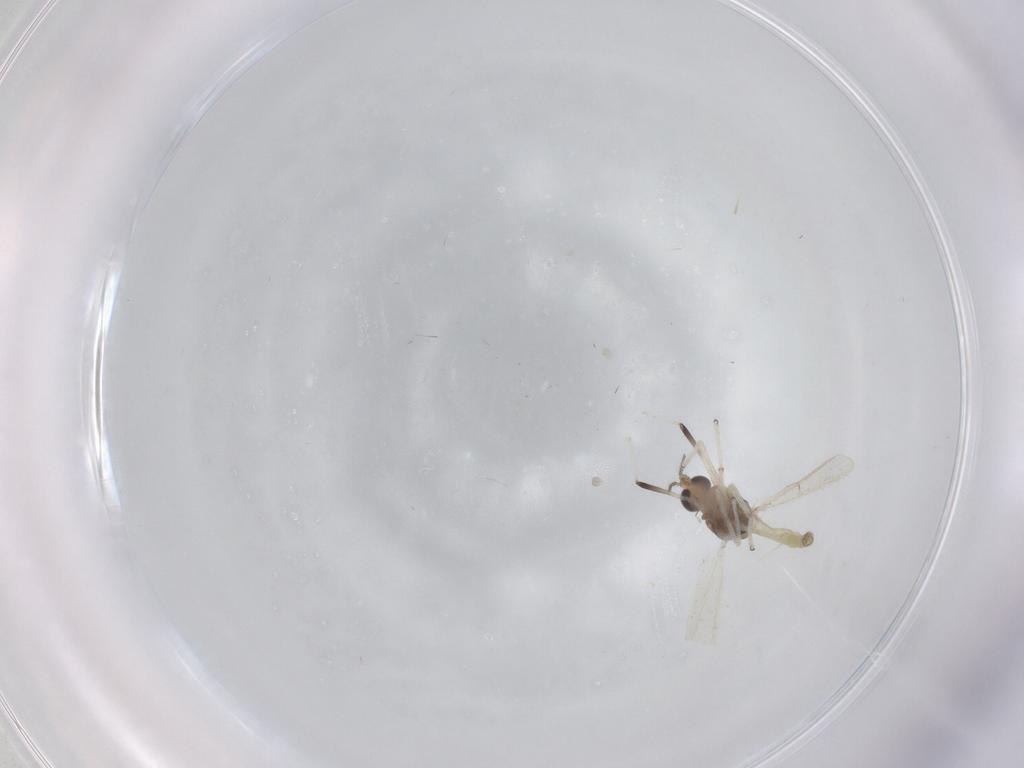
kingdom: Animalia
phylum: Arthropoda
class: Insecta
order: Diptera
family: Chironomidae
